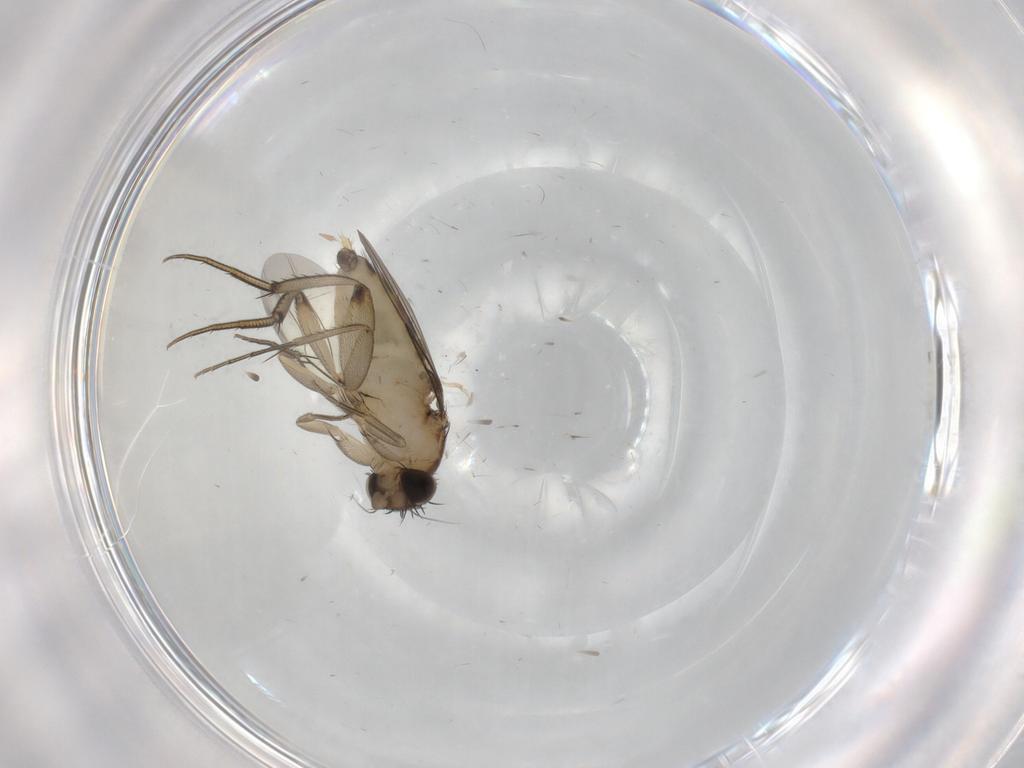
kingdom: Animalia
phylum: Arthropoda
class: Insecta
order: Diptera
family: Phoridae
